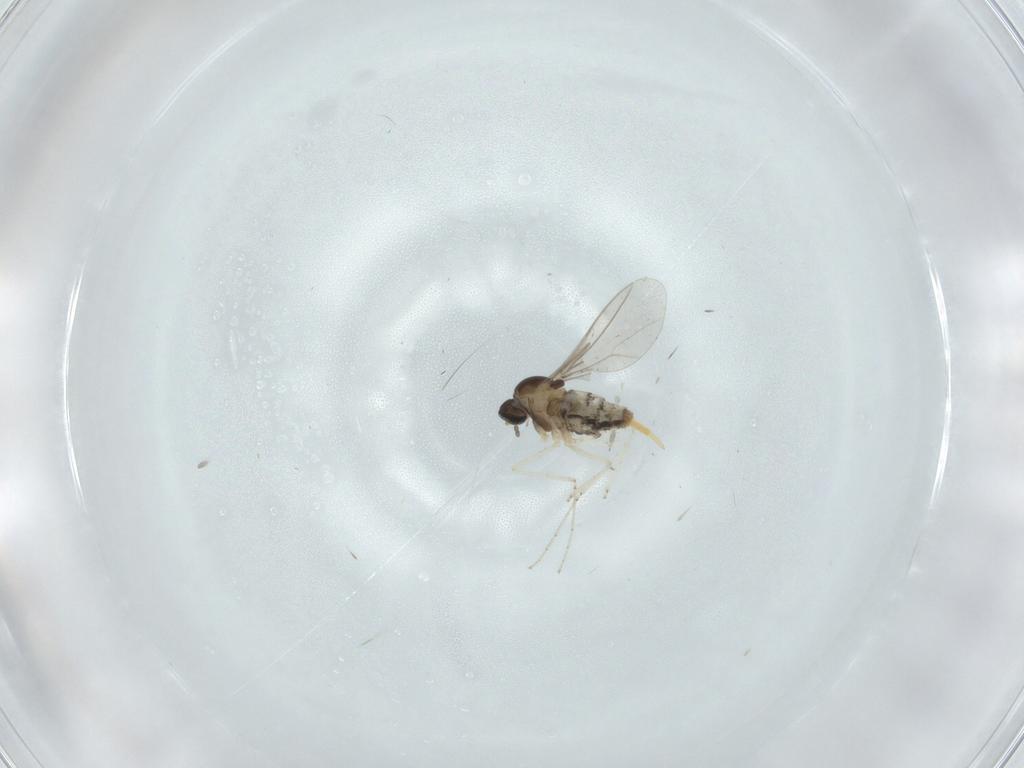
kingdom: Animalia
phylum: Arthropoda
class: Insecta
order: Diptera
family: Cecidomyiidae
